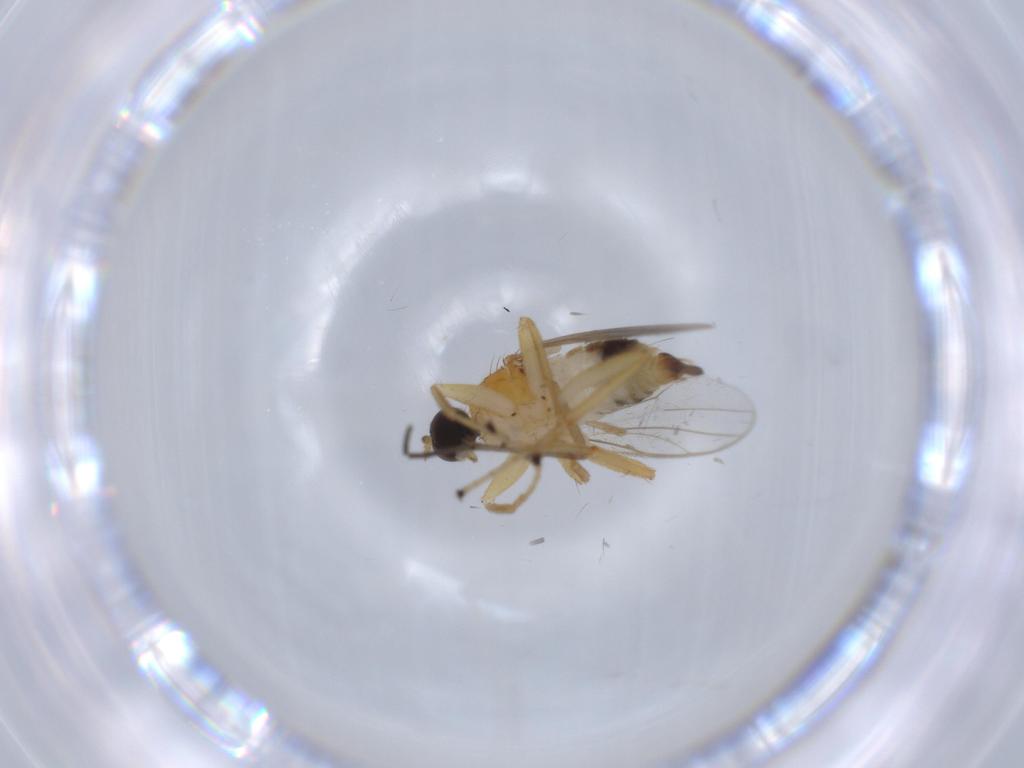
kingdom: Animalia
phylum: Arthropoda
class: Insecta
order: Diptera
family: Hybotidae
